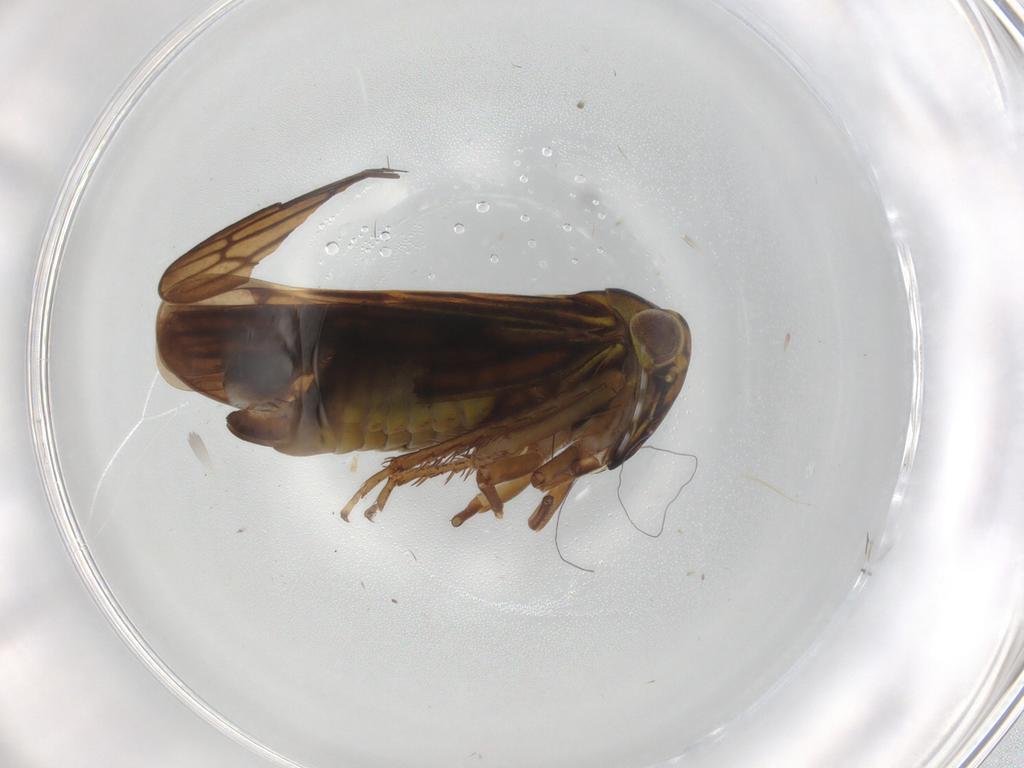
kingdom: Animalia
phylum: Arthropoda
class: Insecta
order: Hemiptera
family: Cicadellidae
